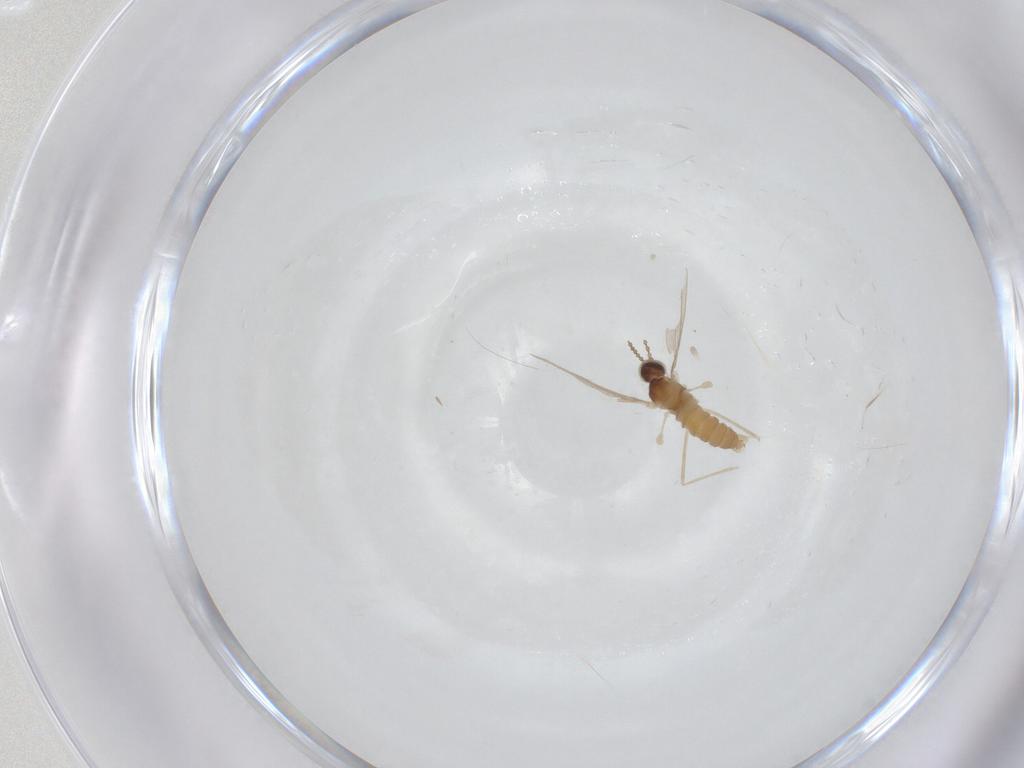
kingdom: Animalia
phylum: Arthropoda
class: Insecta
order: Diptera
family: Cecidomyiidae
